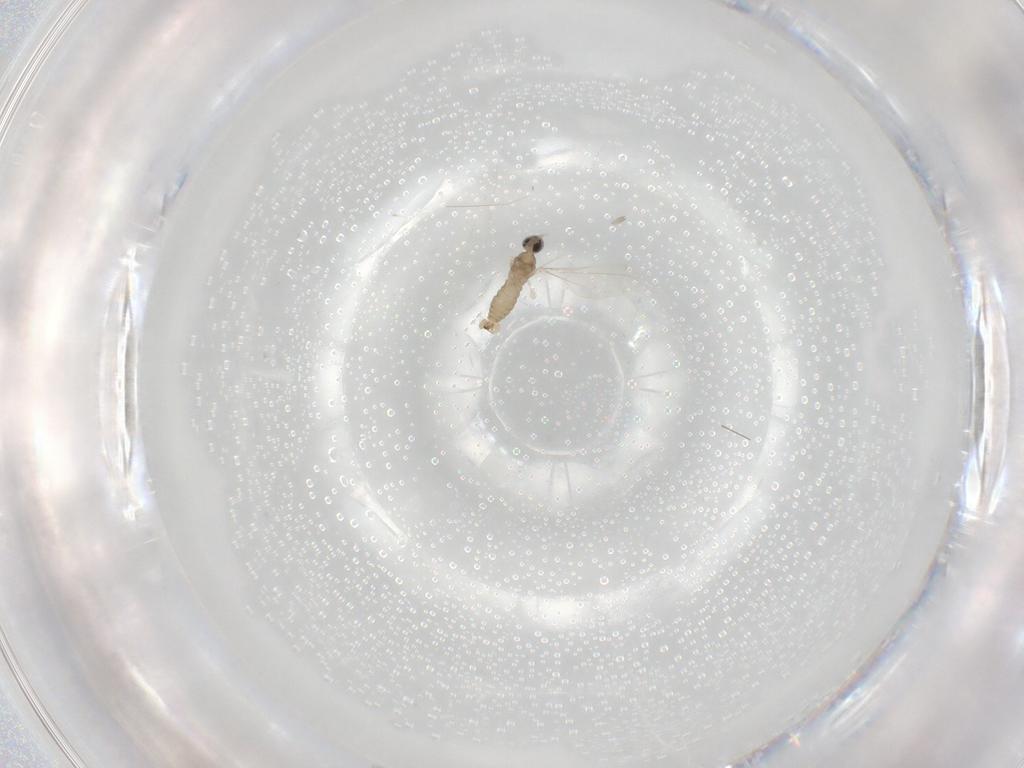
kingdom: Animalia
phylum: Arthropoda
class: Insecta
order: Diptera
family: Cecidomyiidae
